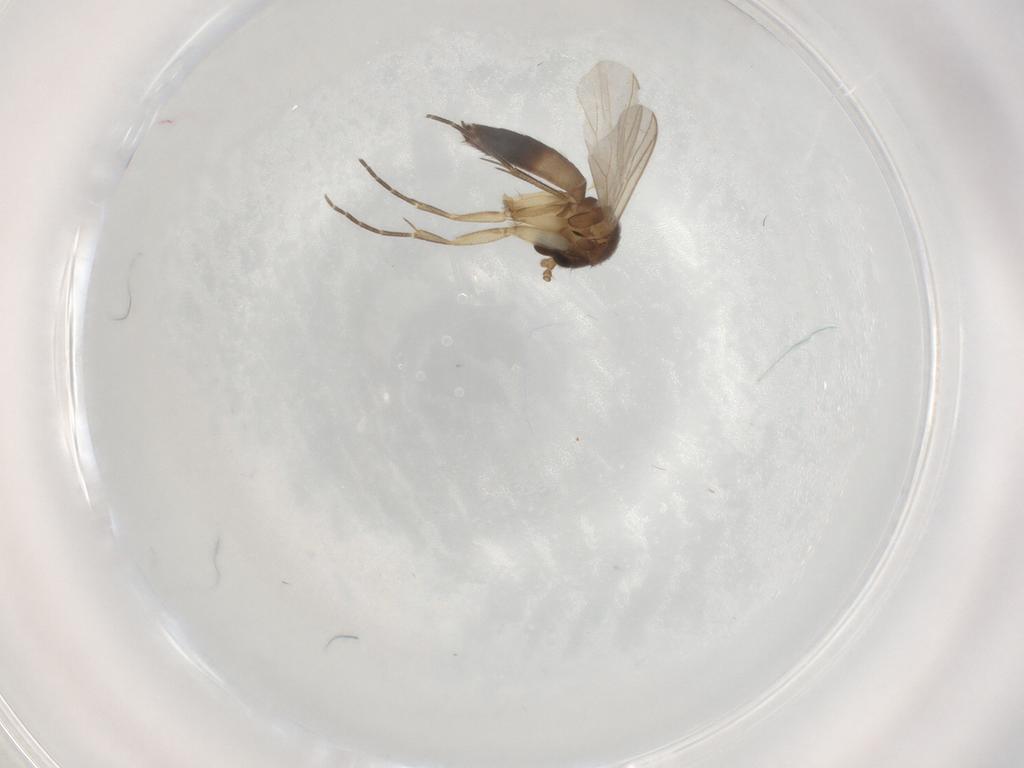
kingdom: Animalia
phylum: Arthropoda
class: Insecta
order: Diptera
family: Mycetophilidae
